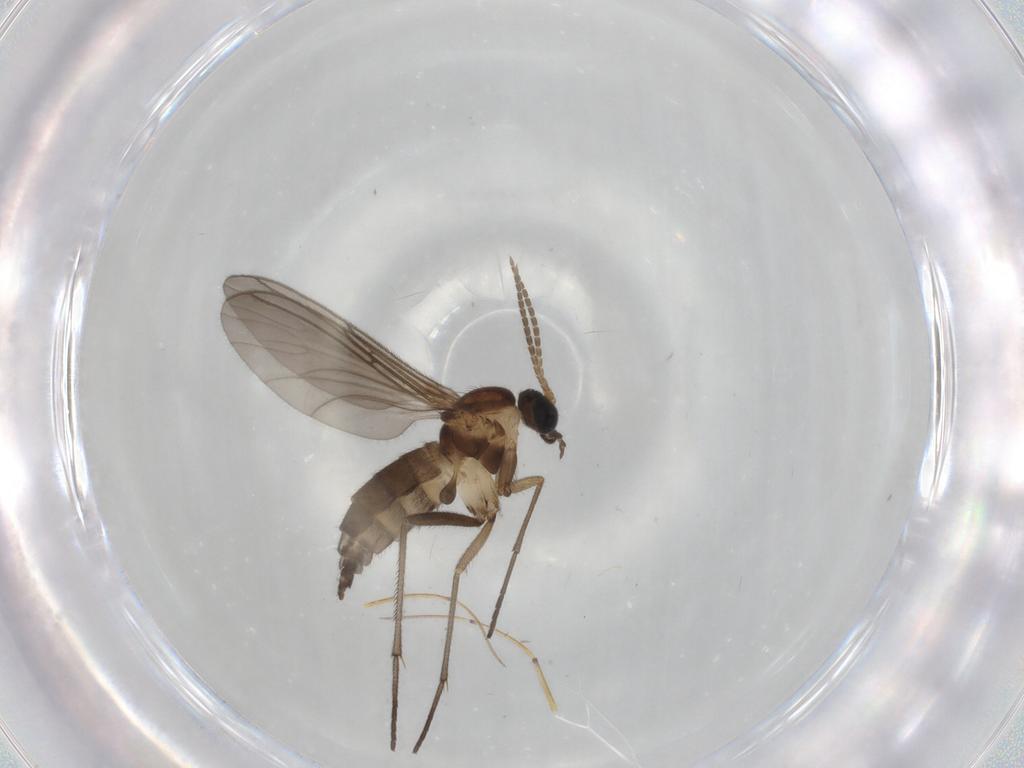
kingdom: Animalia
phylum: Arthropoda
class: Insecta
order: Diptera
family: Sciaridae
